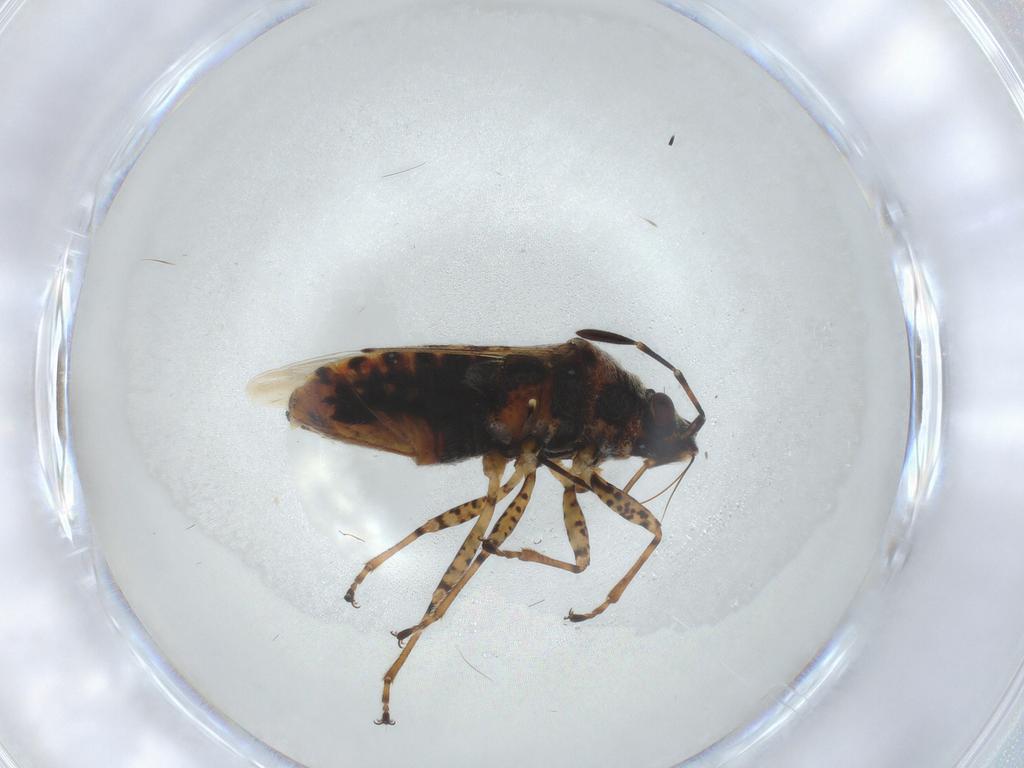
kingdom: Animalia
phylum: Arthropoda
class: Insecta
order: Hemiptera
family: Lygaeidae
